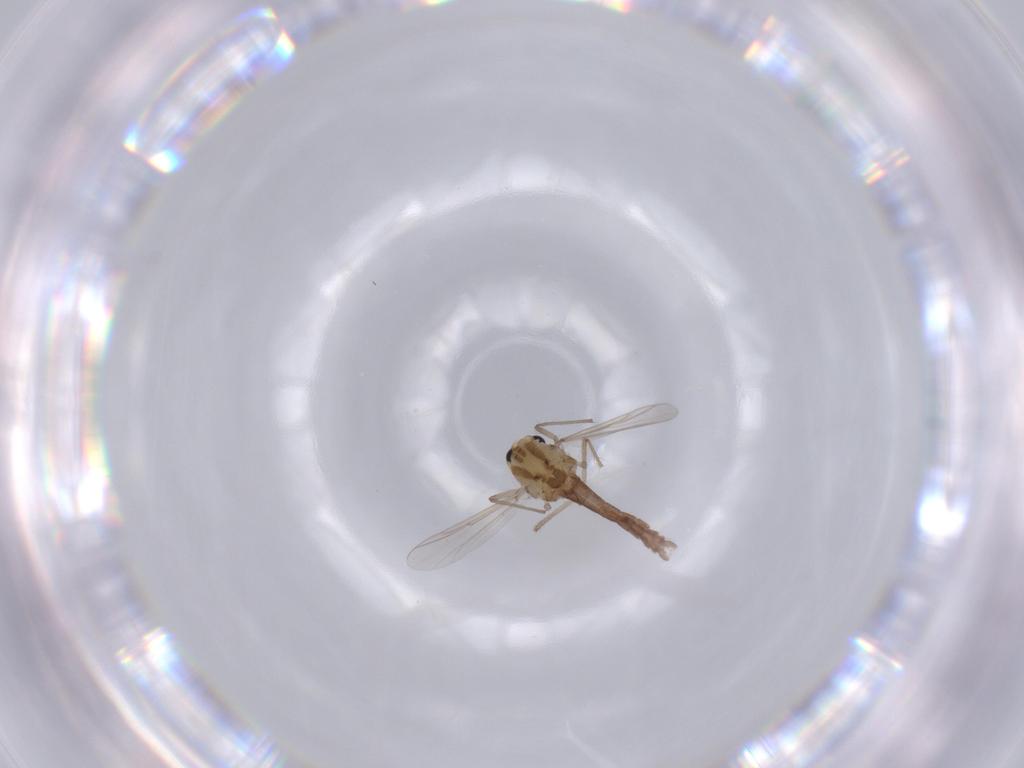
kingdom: Animalia
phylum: Arthropoda
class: Insecta
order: Diptera
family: Chironomidae
